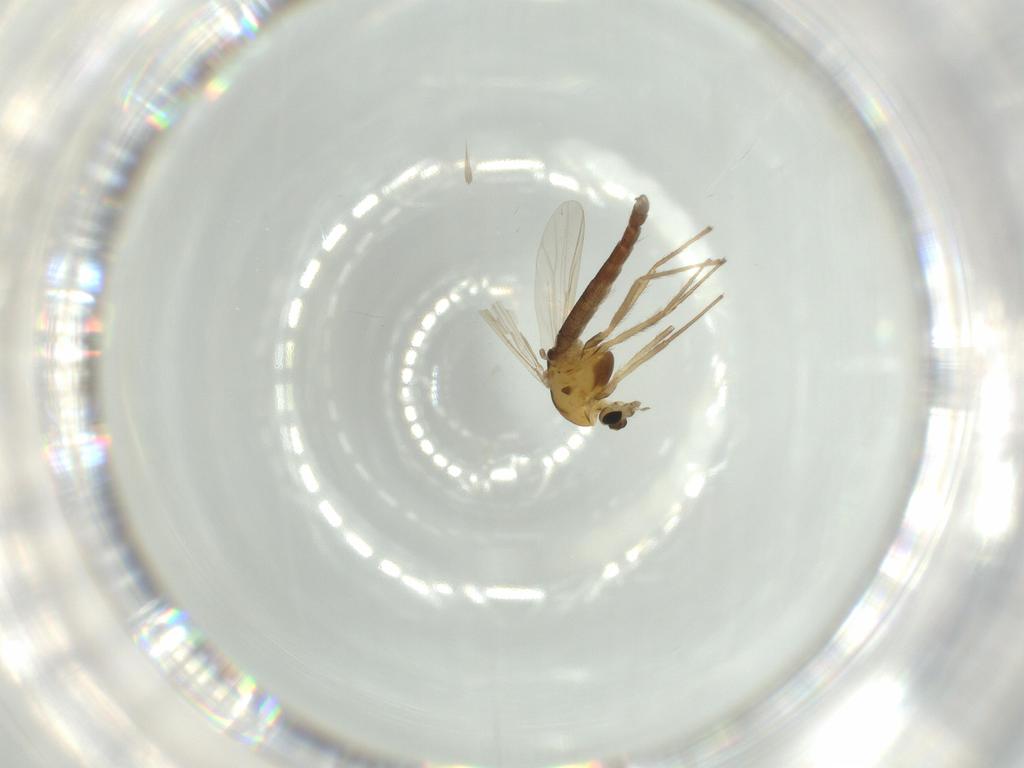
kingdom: Animalia
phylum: Arthropoda
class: Insecta
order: Diptera
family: Chironomidae
